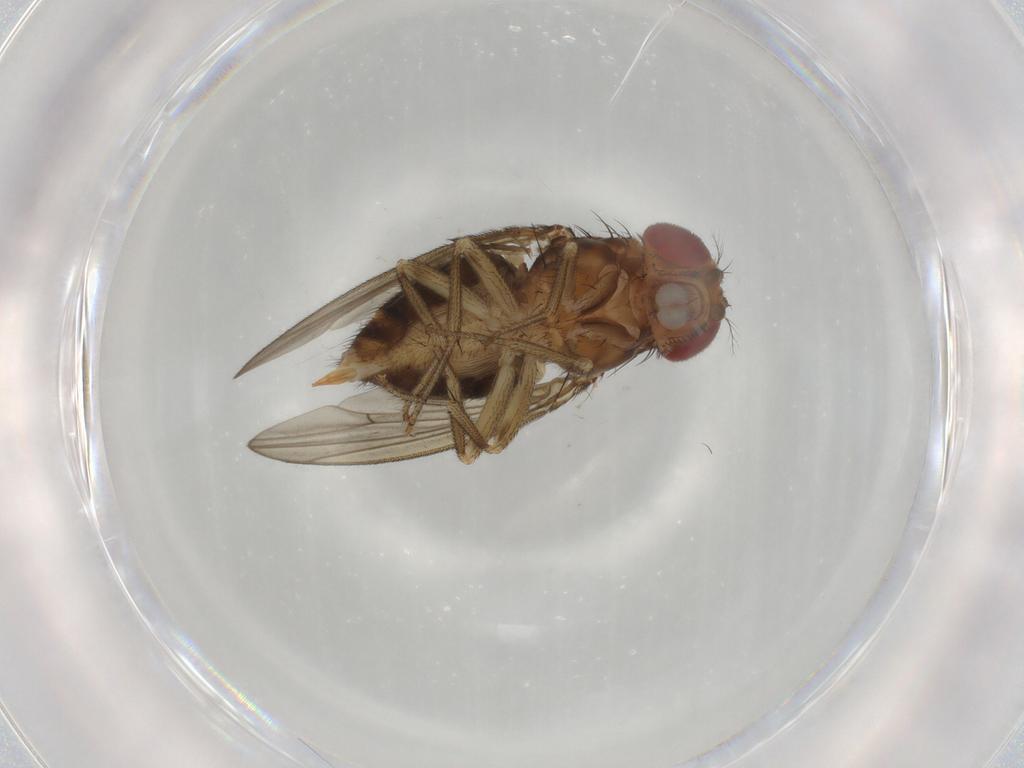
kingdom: Animalia
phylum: Arthropoda
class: Insecta
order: Diptera
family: Drosophilidae
